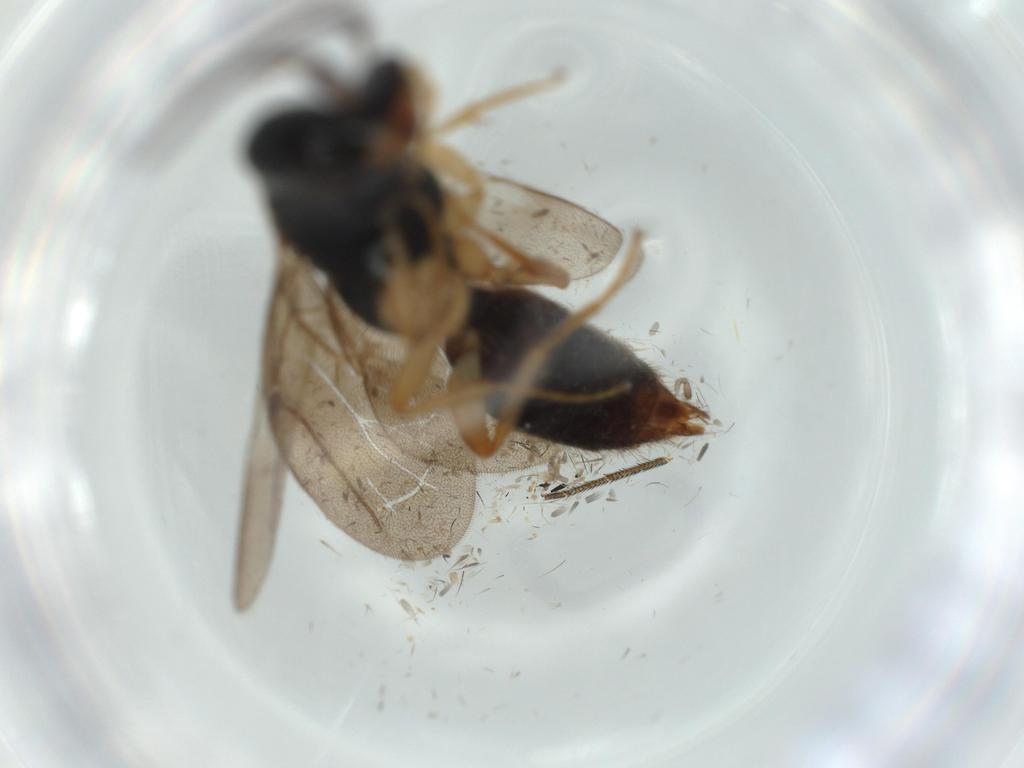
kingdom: Animalia
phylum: Arthropoda
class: Insecta
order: Hymenoptera
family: Bethylidae
